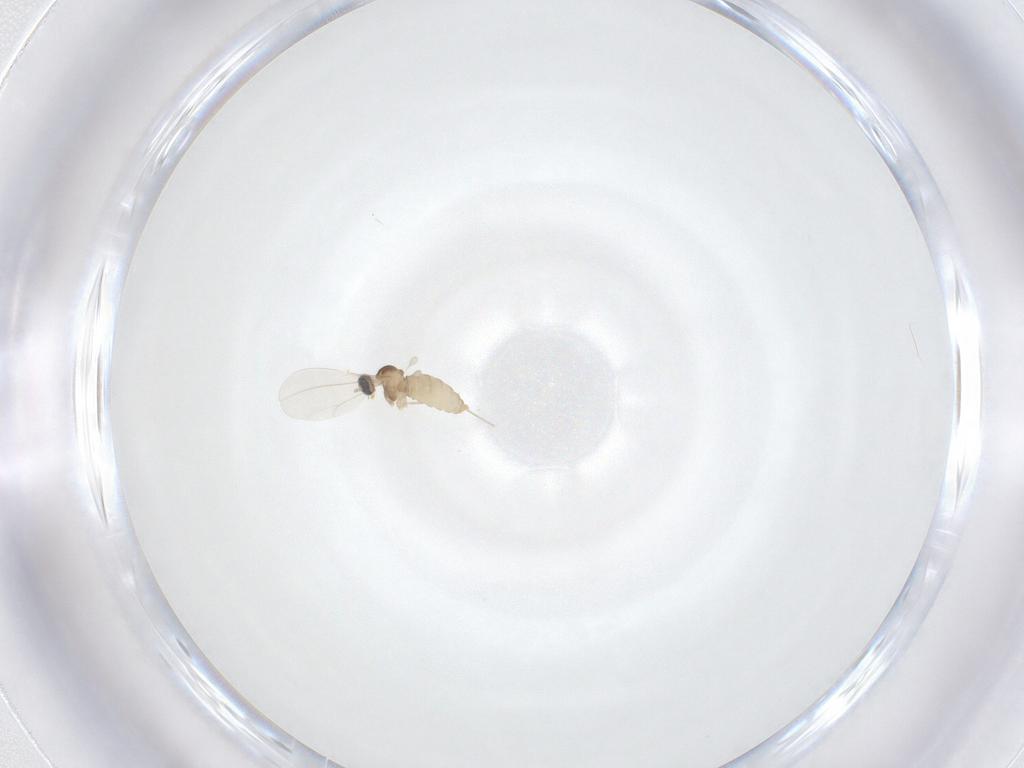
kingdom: Animalia
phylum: Arthropoda
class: Insecta
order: Diptera
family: Cecidomyiidae
